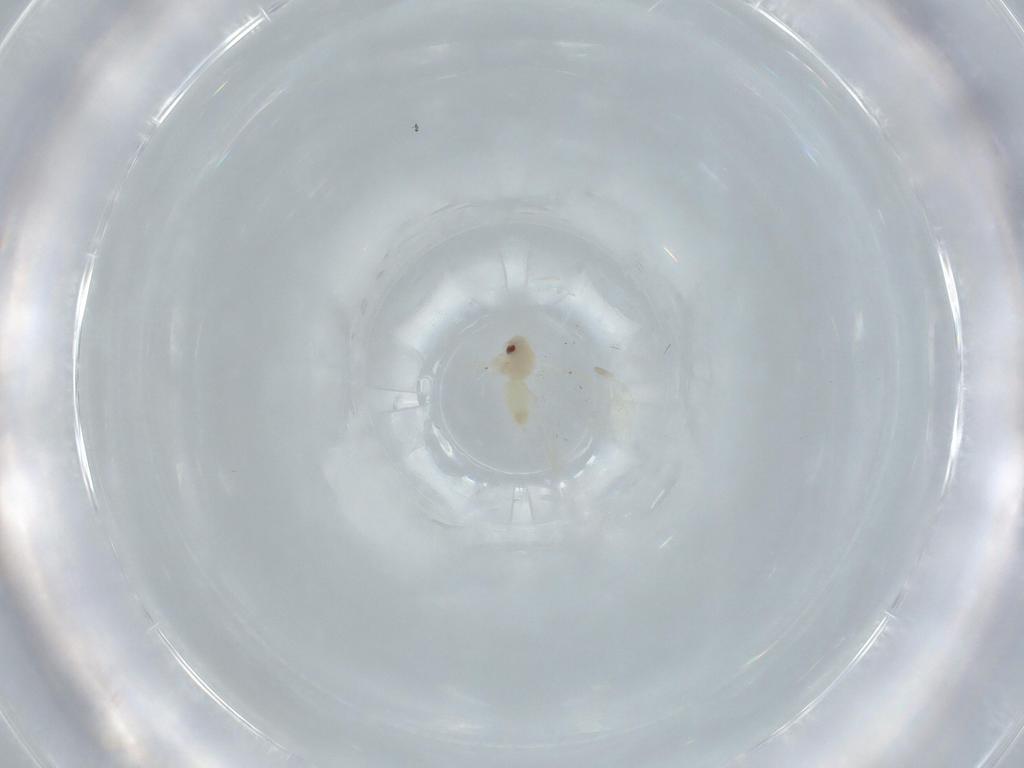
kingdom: Animalia
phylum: Arthropoda
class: Insecta
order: Hemiptera
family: Aleyrodidae
